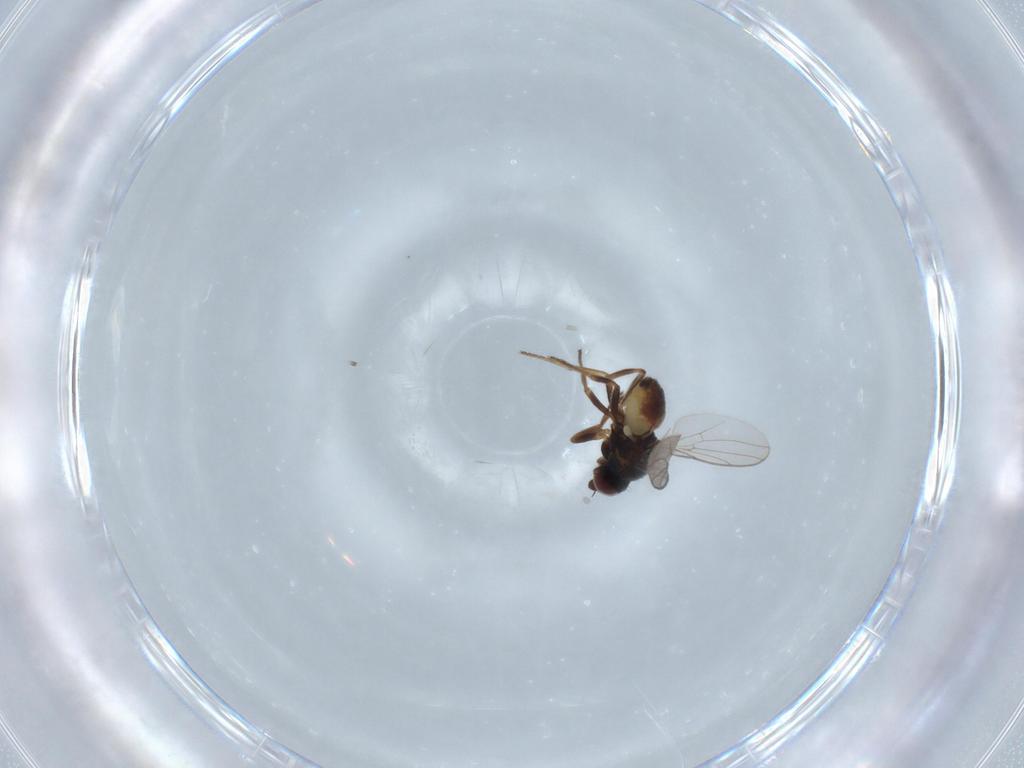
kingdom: Animalia
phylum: Arthropoda
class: Insecta
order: Diptera
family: Chloropidae
